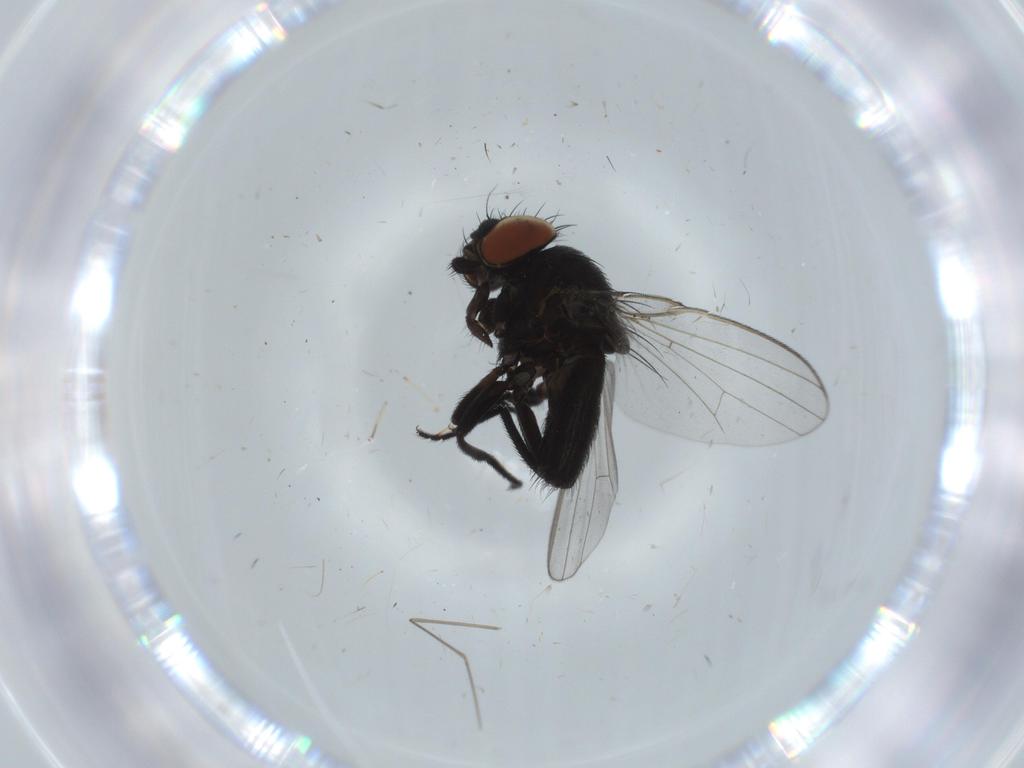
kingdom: Animalia
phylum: Arthropoda
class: Insecta
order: Diptera
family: Milichiidae
